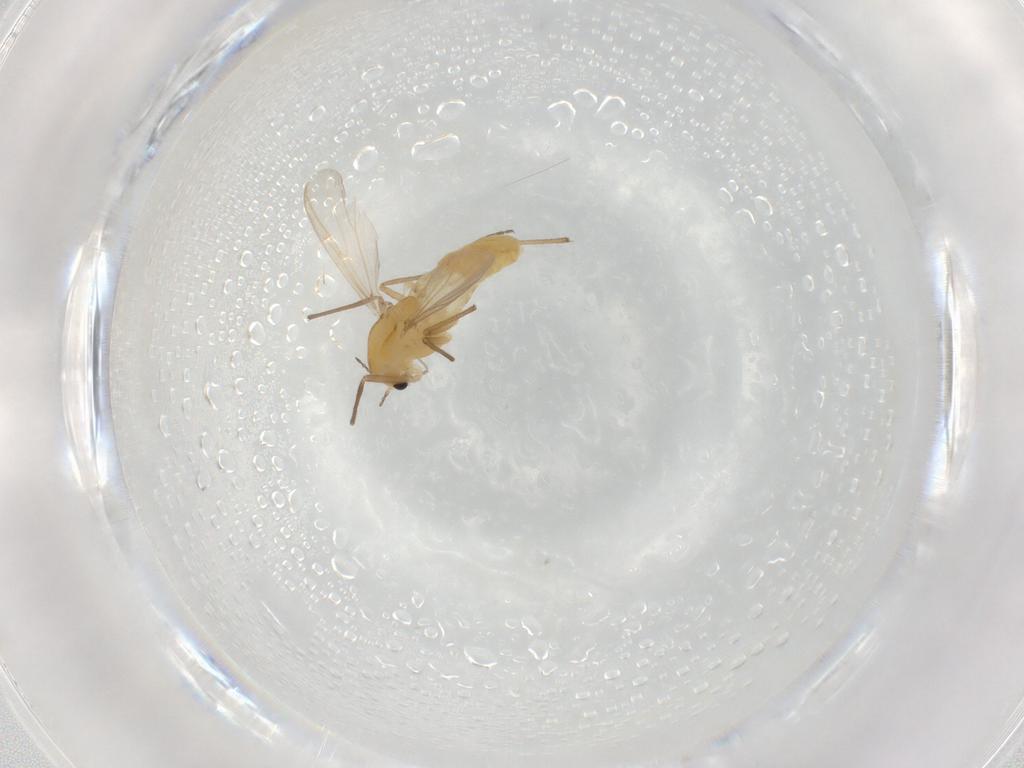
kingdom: Animalia
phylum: Arthropoda
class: Insecta
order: Diptera
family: Chironomidae
